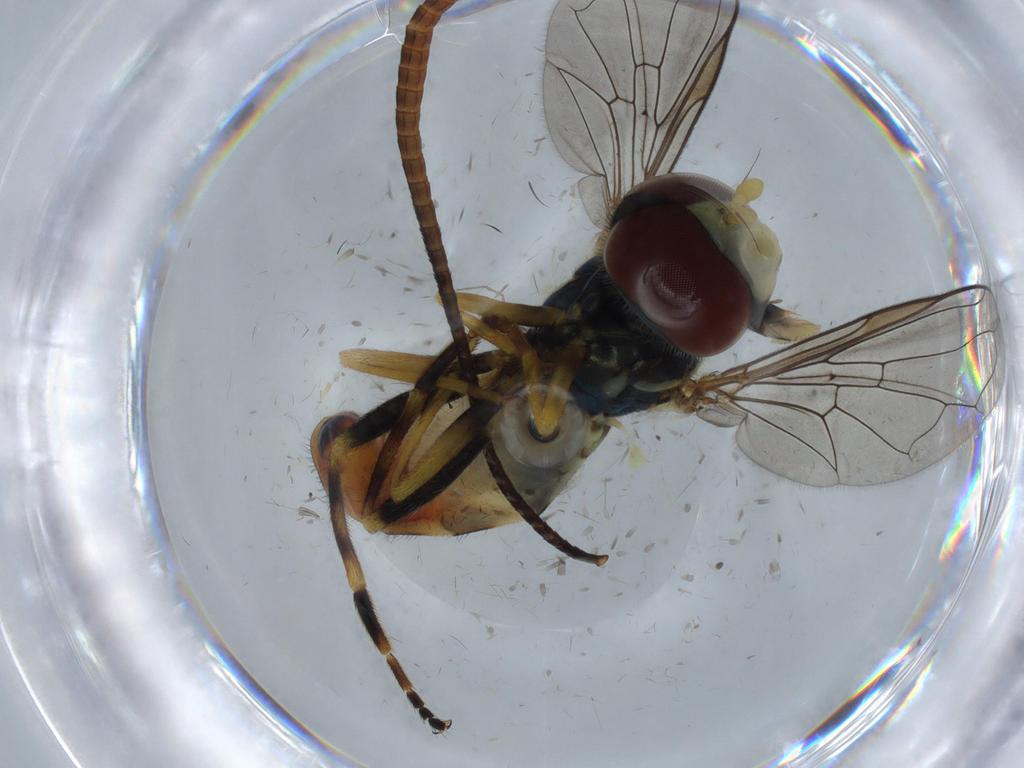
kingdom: Animalia
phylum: Arthropoda
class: Insecta
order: Diptera
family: Syrphidae
